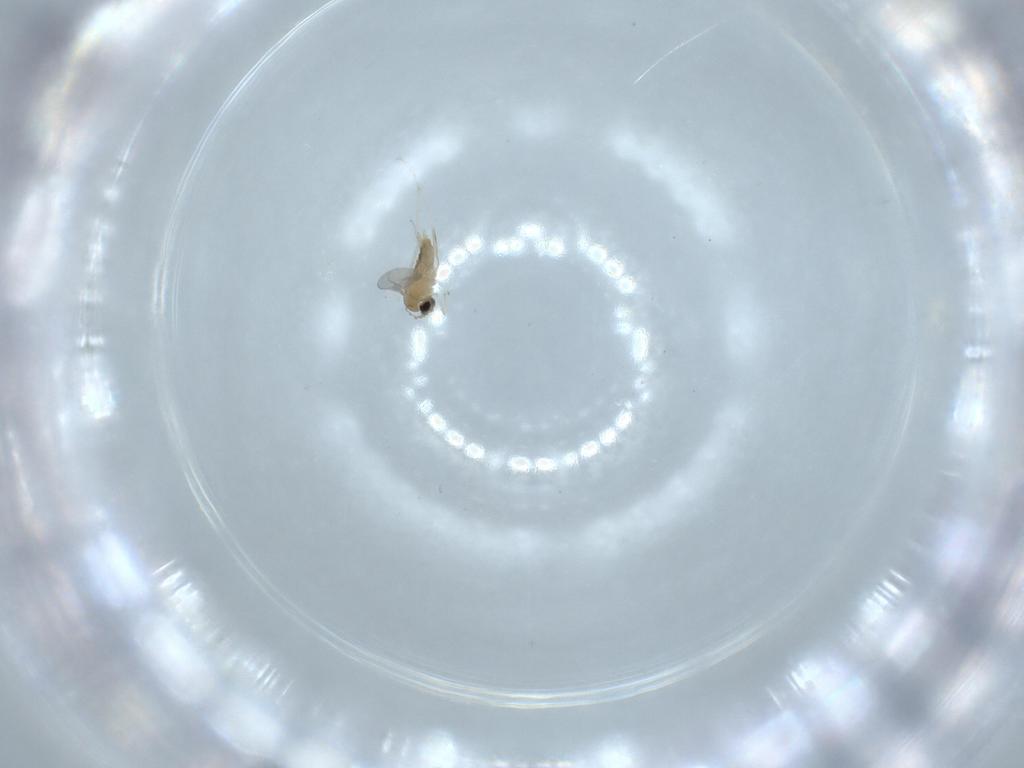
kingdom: Animalia
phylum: Arthropoda
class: Insecta
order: Diptera
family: Cecidomyiidae
